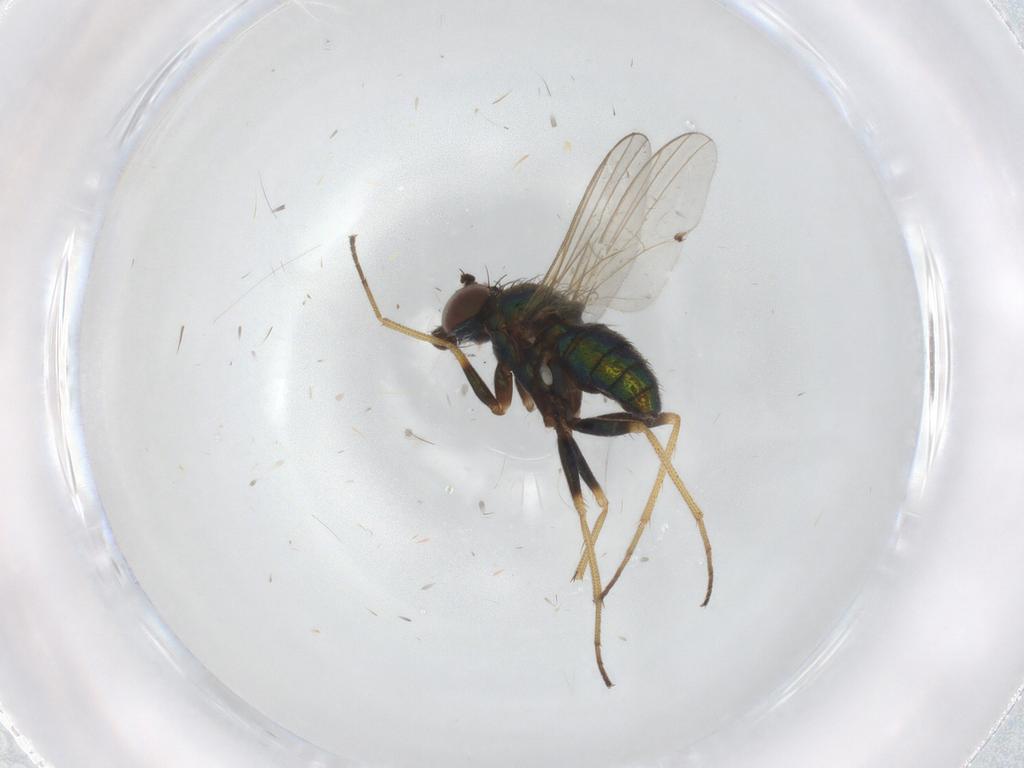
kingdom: Animalia
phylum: Arthropoda
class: Insecta
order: Diptera
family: Dolichopodidae
